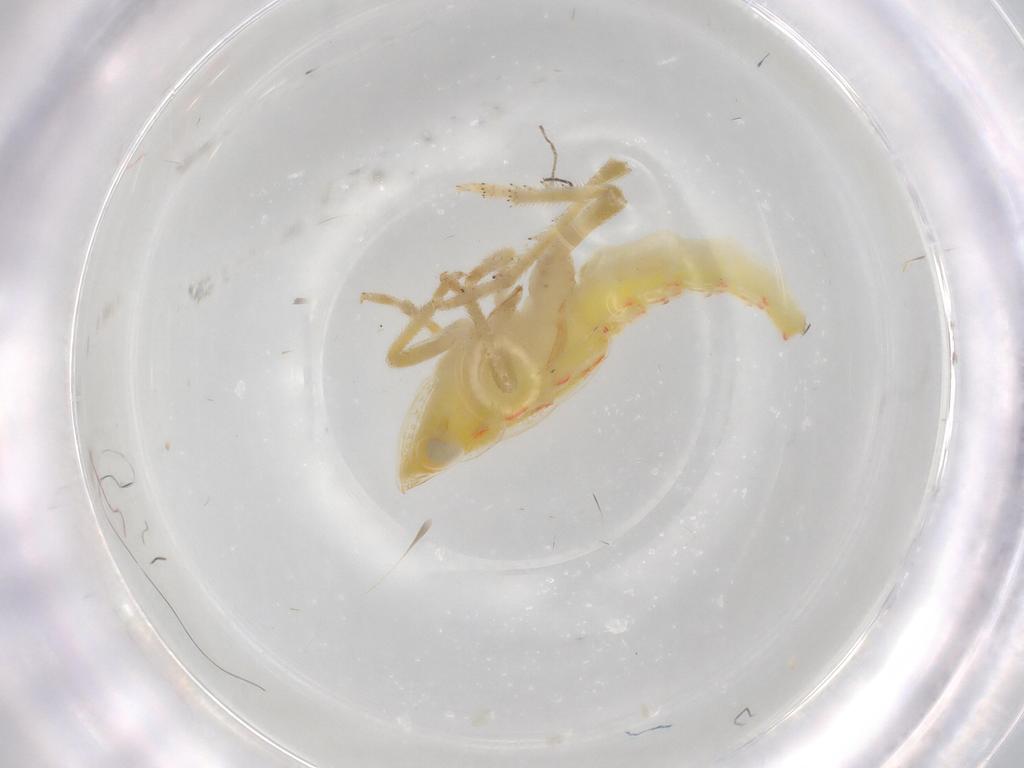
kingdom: Animalia
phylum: Arthropoda
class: Insecta
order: Hemiptera
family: Tropiduchidae
